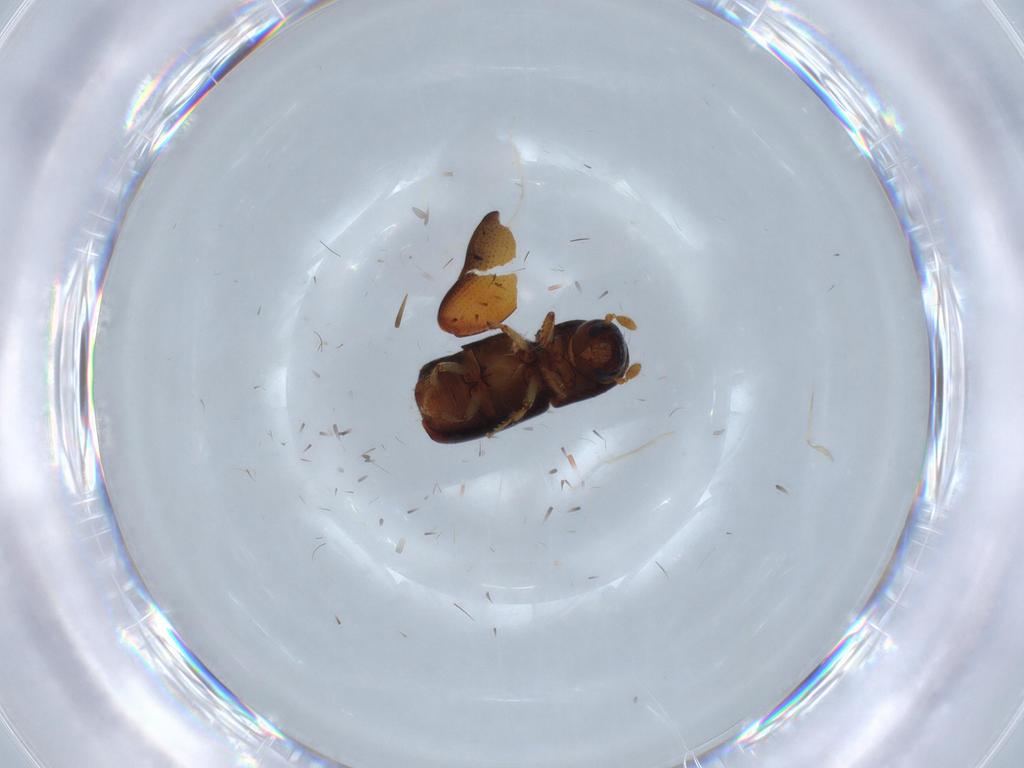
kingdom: Animalia
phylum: Arthropoda
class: Insecta
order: Coleoptera
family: Curculionidae
